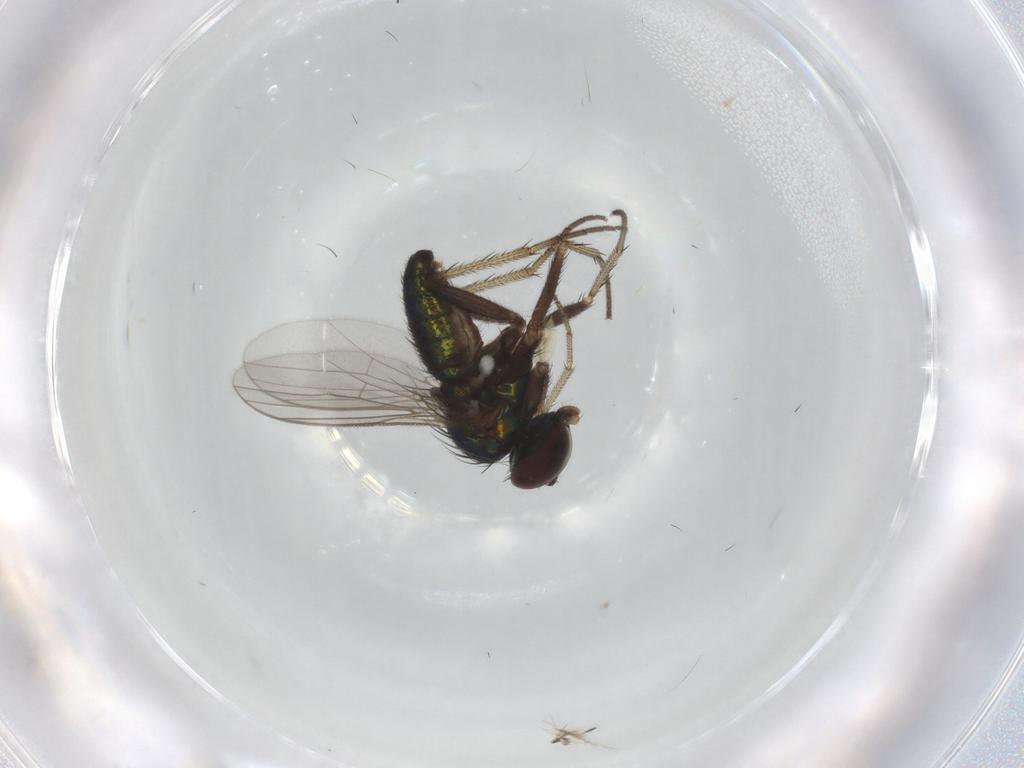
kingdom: Animalia
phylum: Arthropoda
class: Insecta
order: Diptera
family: Dolichopodidae
